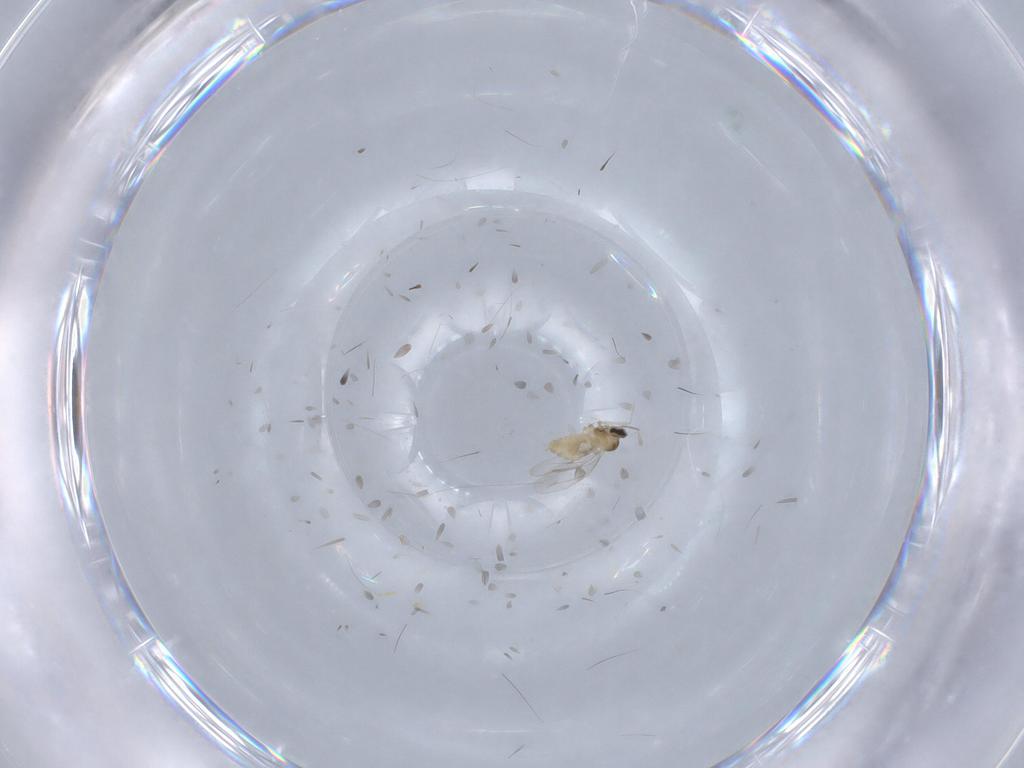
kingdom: Animalia
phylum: Arthropoda
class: Insecta
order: Diptera
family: Cecidomyiidae
